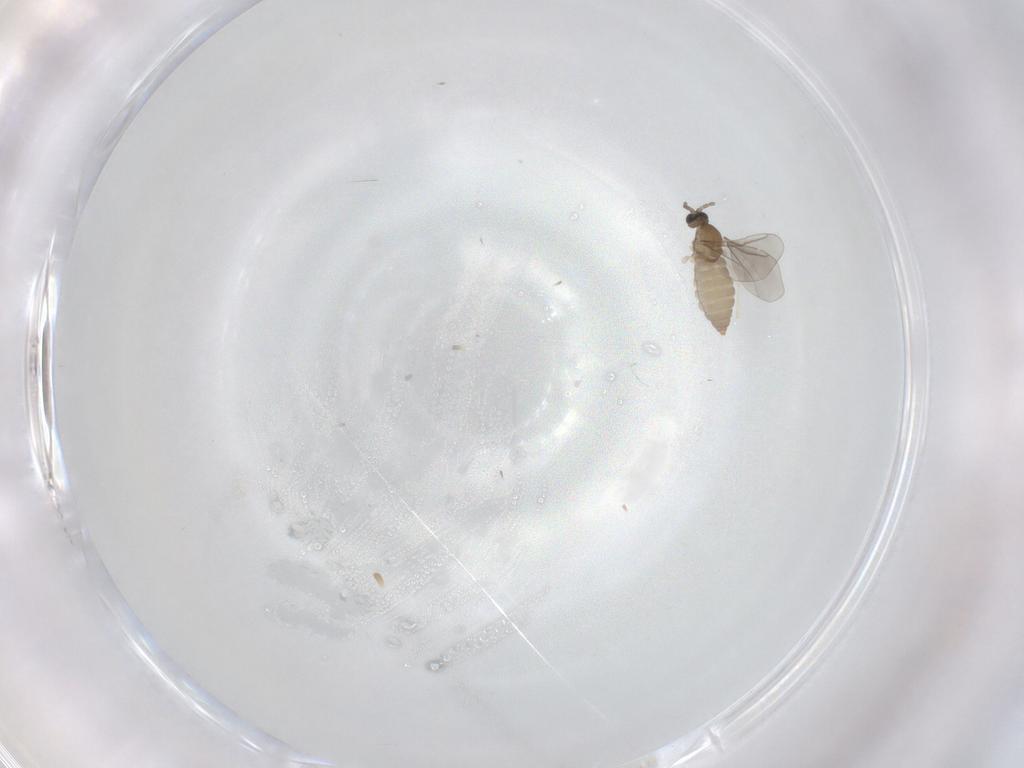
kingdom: Animalia
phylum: Arthropoda
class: Insecta
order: Diptera
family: Cecidomyiidae
